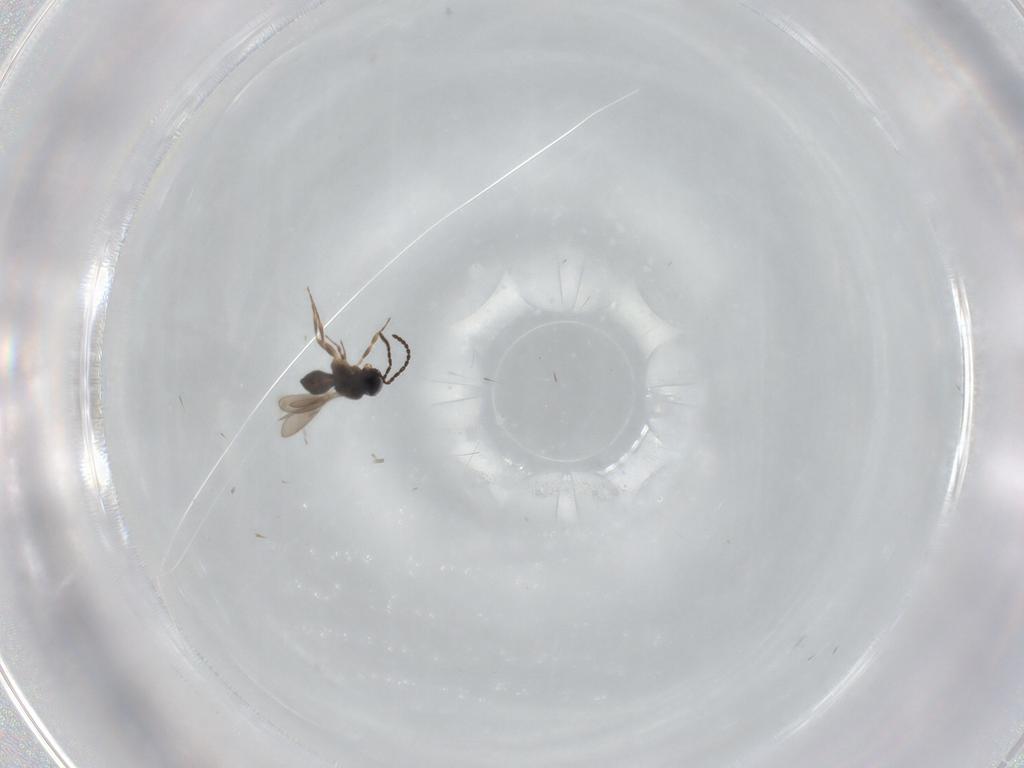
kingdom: Animalia
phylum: Arthropoda
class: Insecta
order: Hymenoptera
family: Scelionidae
